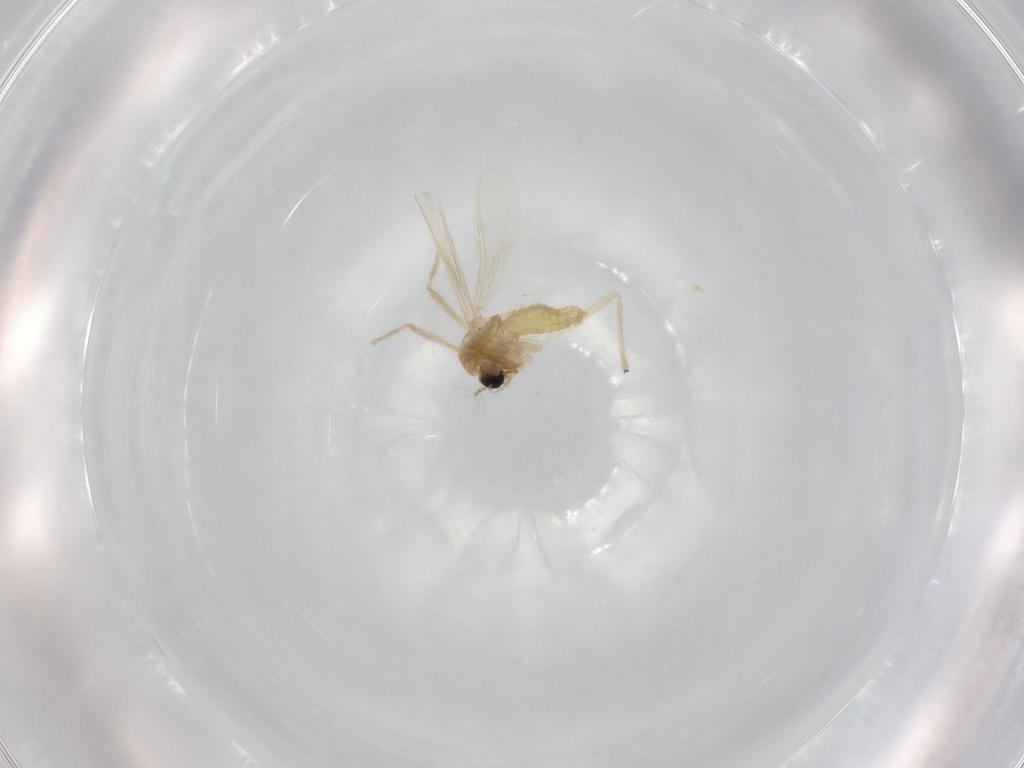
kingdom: Animalia
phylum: Arthropoda
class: Insecta
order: Diptera
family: Chironomidae
